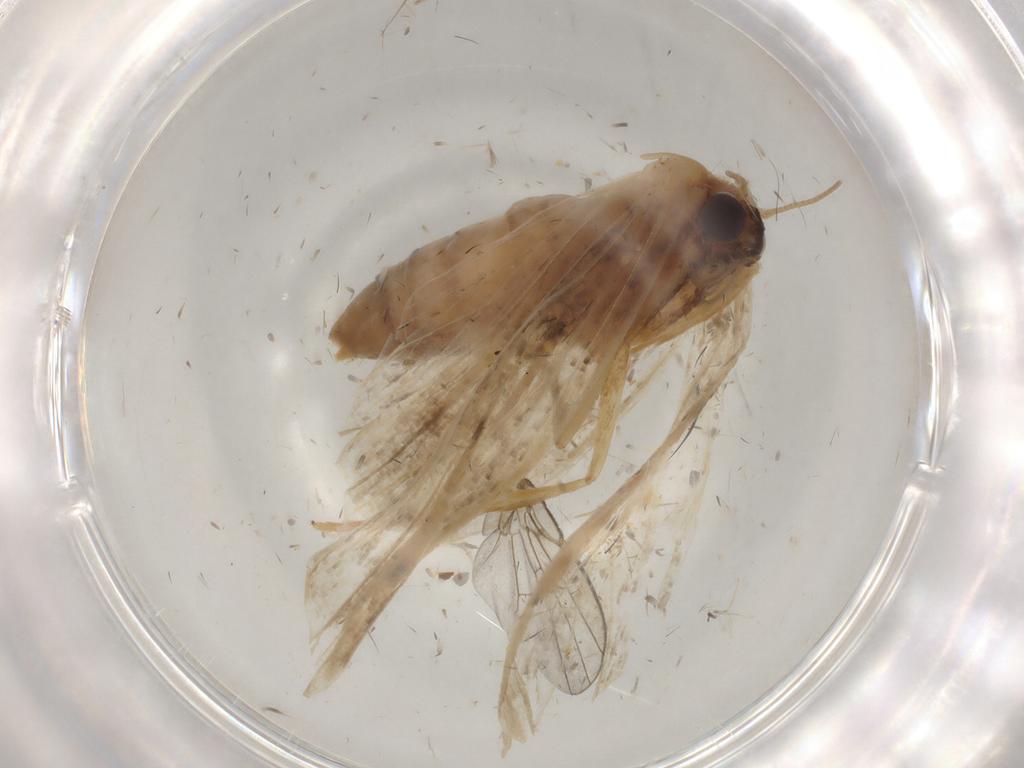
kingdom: Animalia
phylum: Arthropoda
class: Insecta
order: Lepidoptera
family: Geometridae
